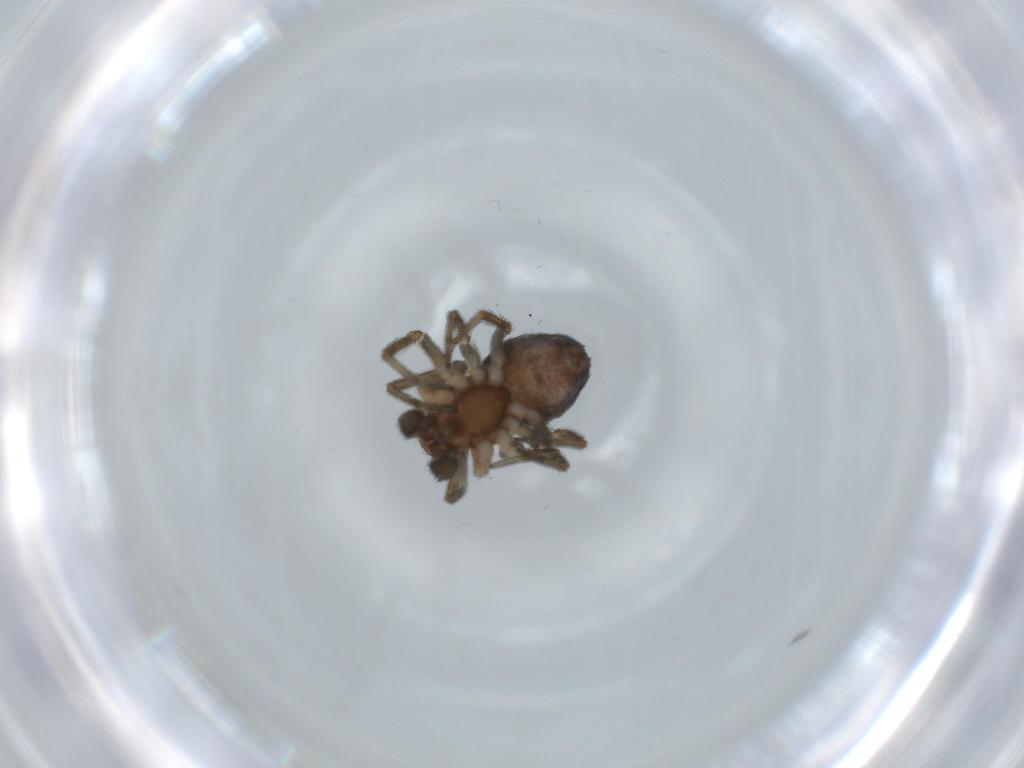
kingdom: Animalia
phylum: Arthropoda
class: Arachnida
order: Araneae
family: Dictynidae
